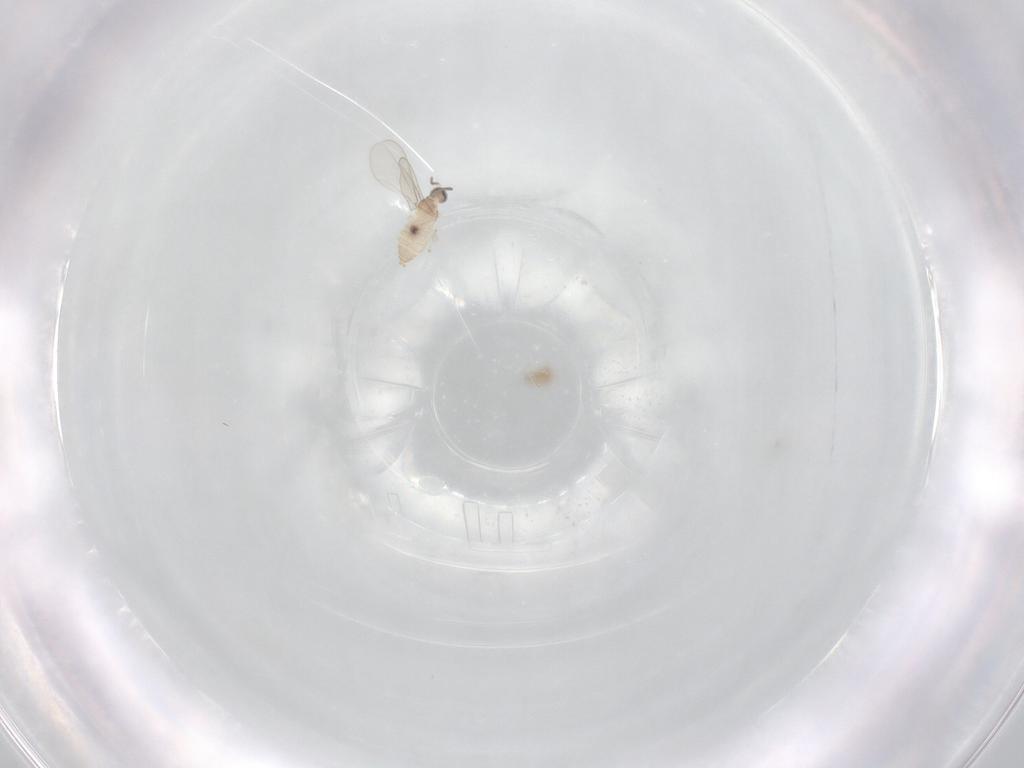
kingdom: Animalia
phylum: Arthropoda
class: Insecta
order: Diptera
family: Cecidomyiidae
